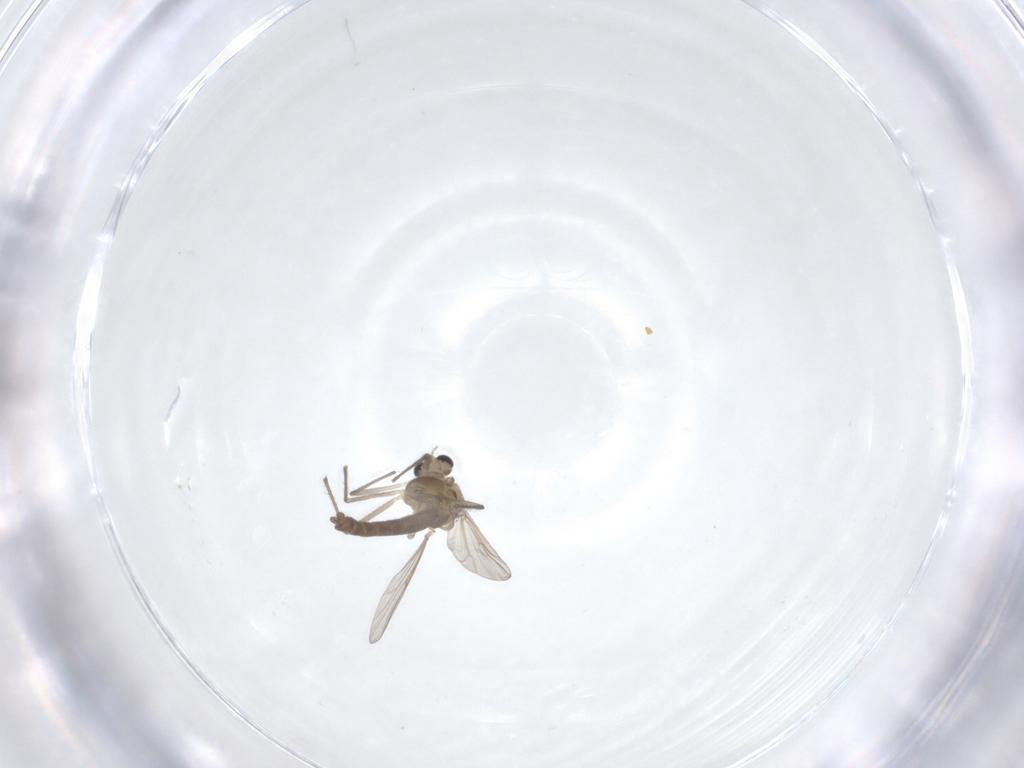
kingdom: Animalia
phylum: Arthropoda
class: Insecta
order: Diptera
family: Chironomidae
